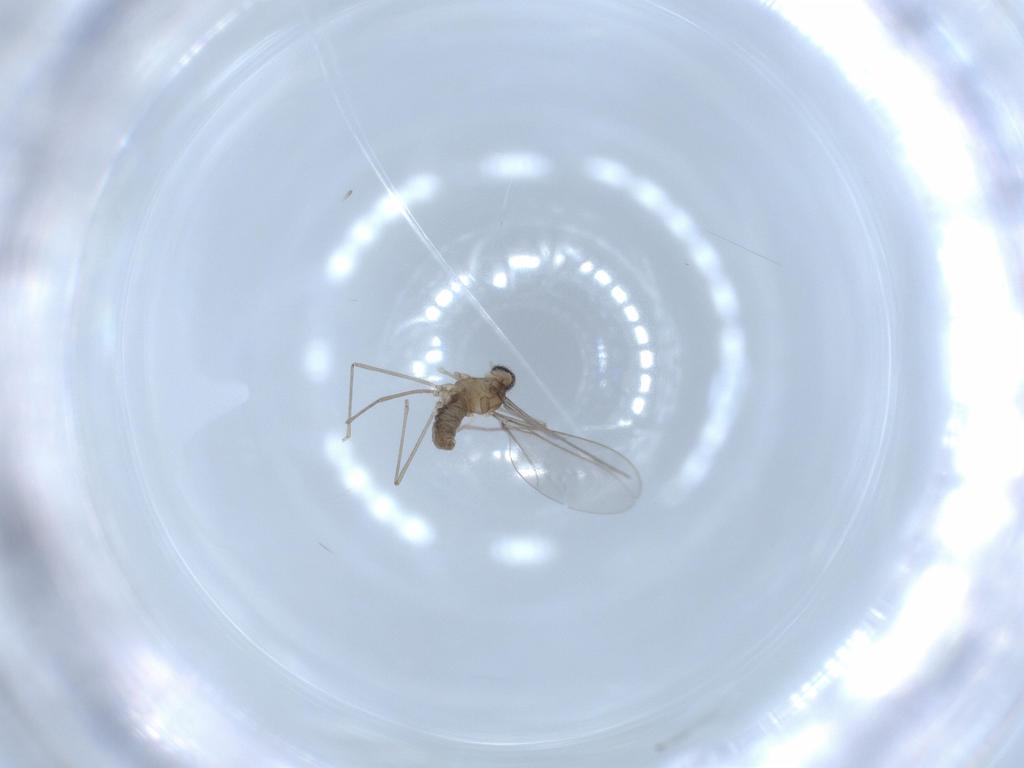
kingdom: Animalia
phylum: Arthropoda
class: Insecta
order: Diptera
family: Cecidomyiidae
